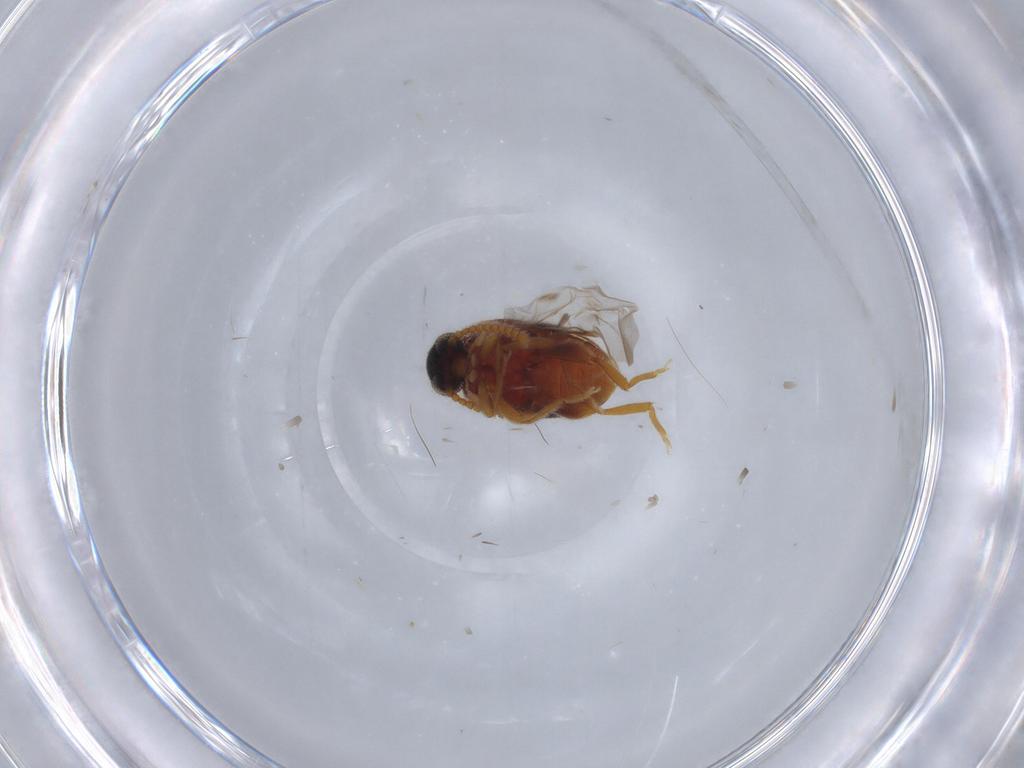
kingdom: Animalia
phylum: Arthropoda
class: Insecta
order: Coleoptera
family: Aderidae
